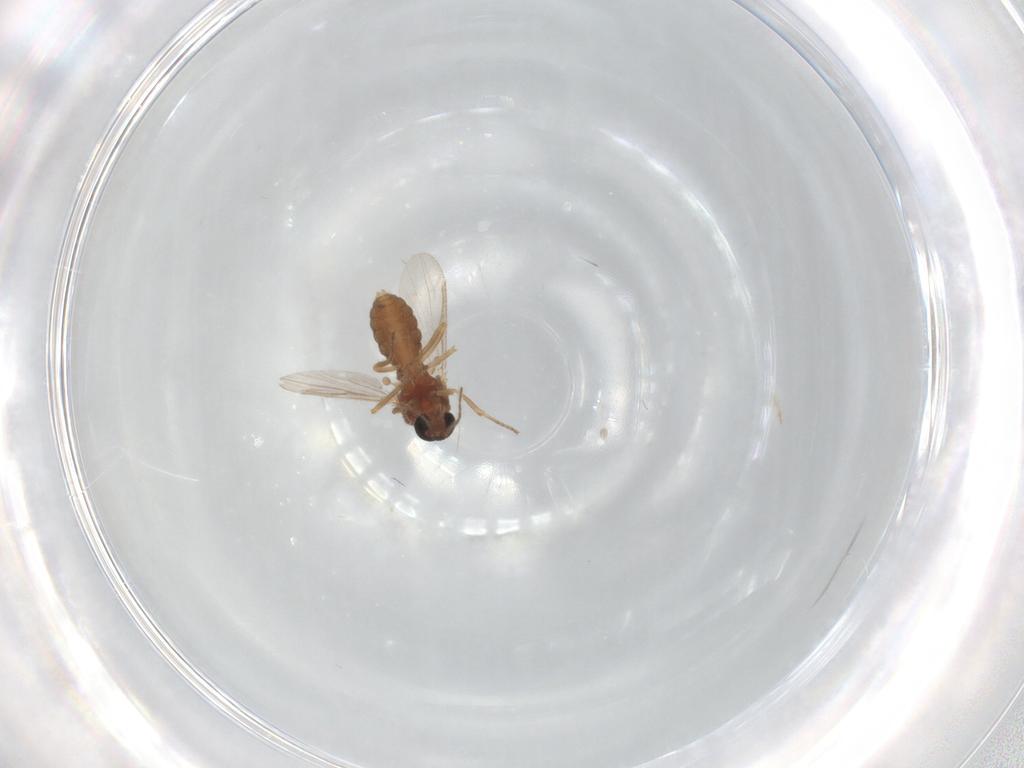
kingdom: Animalia
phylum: Arthropoda
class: Insecta
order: Diptera
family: Ceratopogonidae
